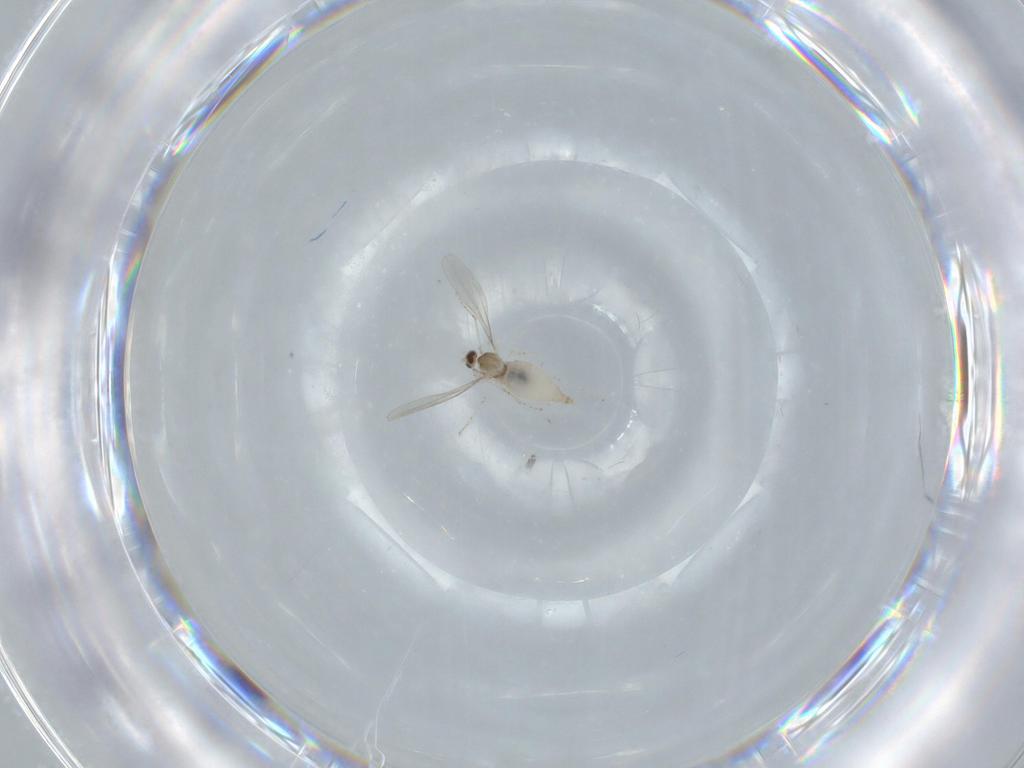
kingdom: Animalia
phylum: Arthropoda
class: Insecta
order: Diptera
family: Cecidomyiidae
